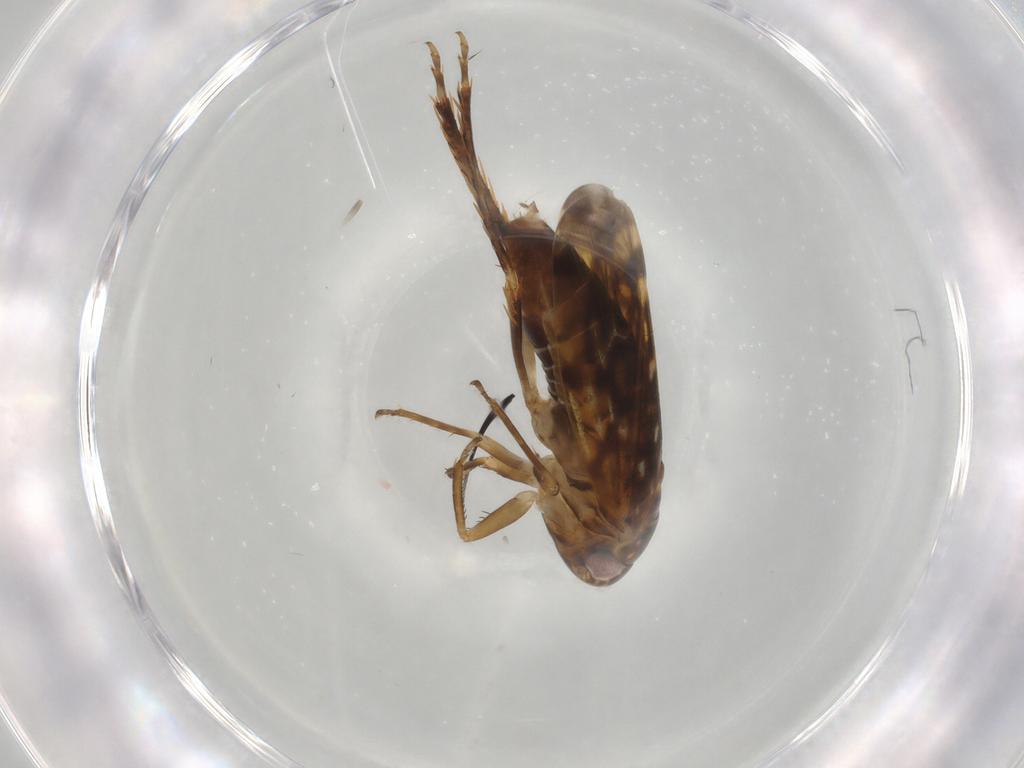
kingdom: Animalia
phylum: Arthropoda
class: Insecta
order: Hemiptera
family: Cicadellidae
